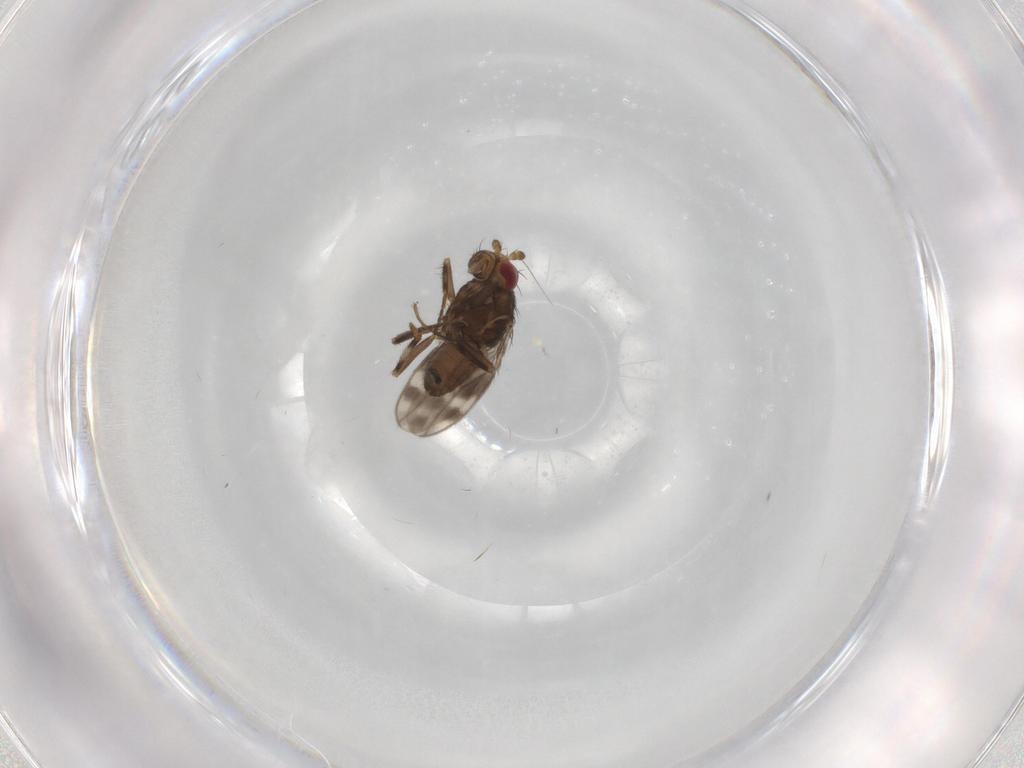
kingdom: Animalia
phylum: Arthropoda
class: Insecta
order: Diptera
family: Sphaeroceridae
